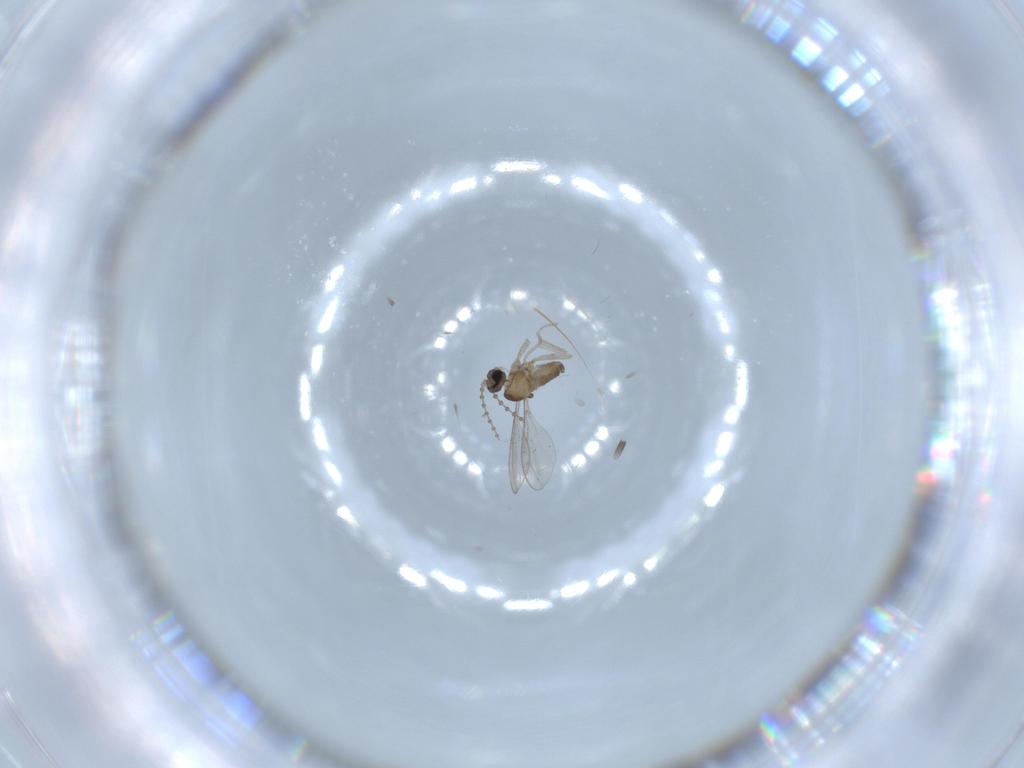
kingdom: Animalia
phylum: Arthropoda
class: Insecta
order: Diptera
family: Cecidomyiidae
